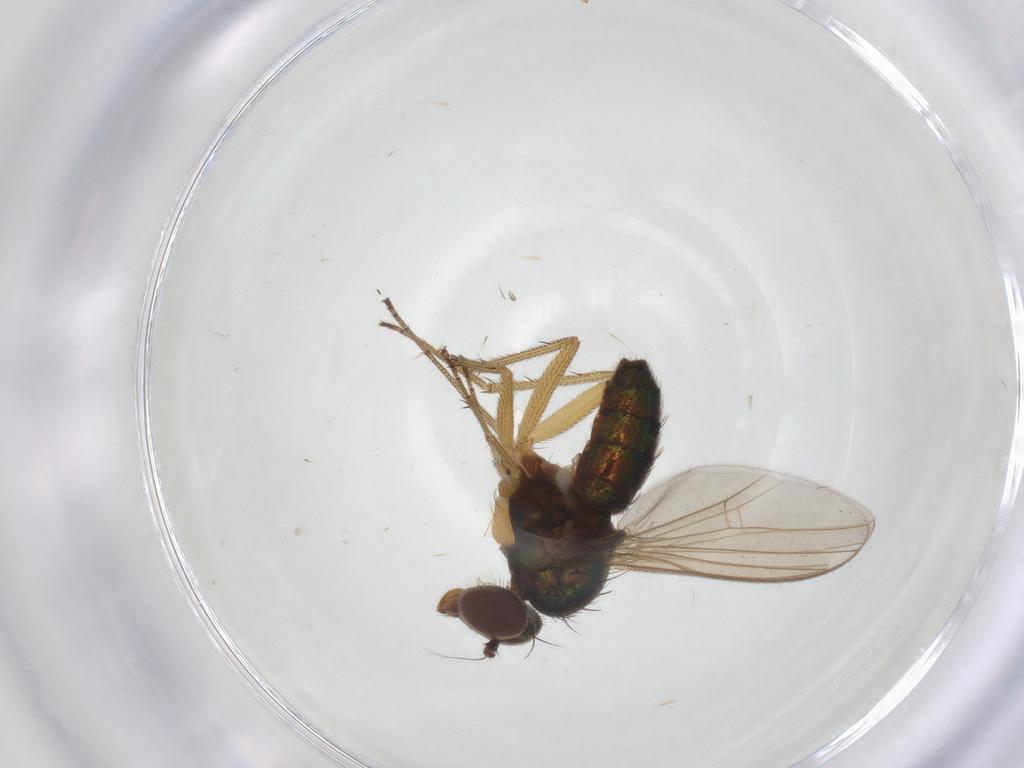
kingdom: Animalia
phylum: Arthropoda
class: Insecta
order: Diptera
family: Dolichopodidae
